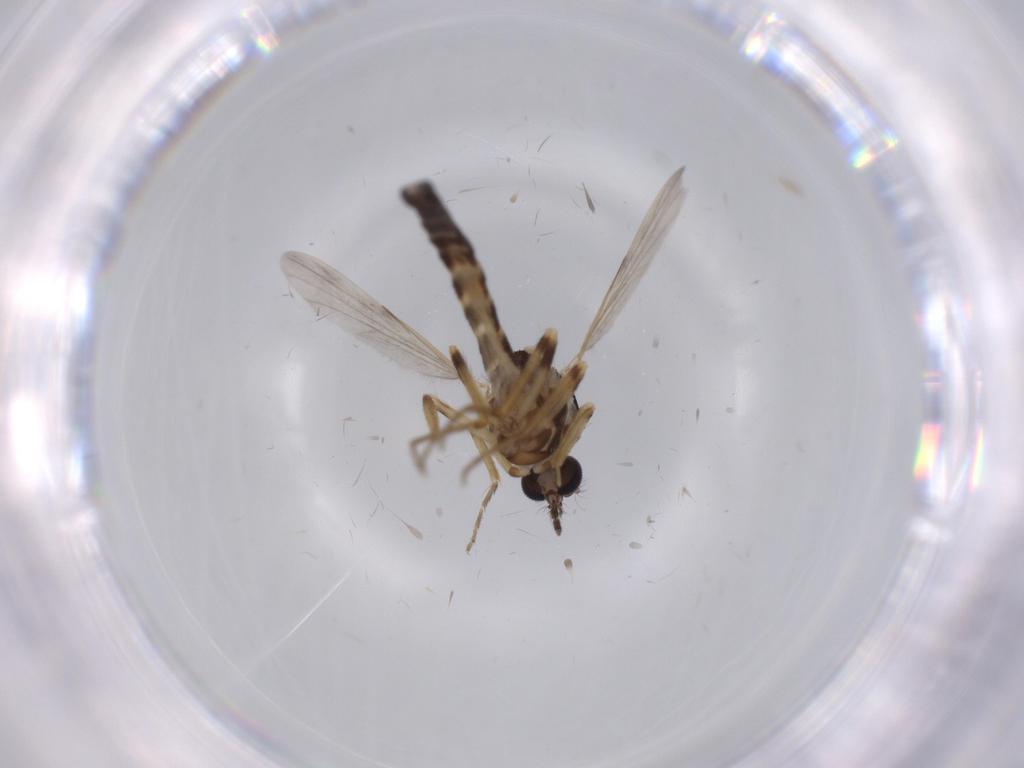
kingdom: Animalia
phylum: Arthropoda
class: Insecta
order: Diptera
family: Ceratopogonidae
